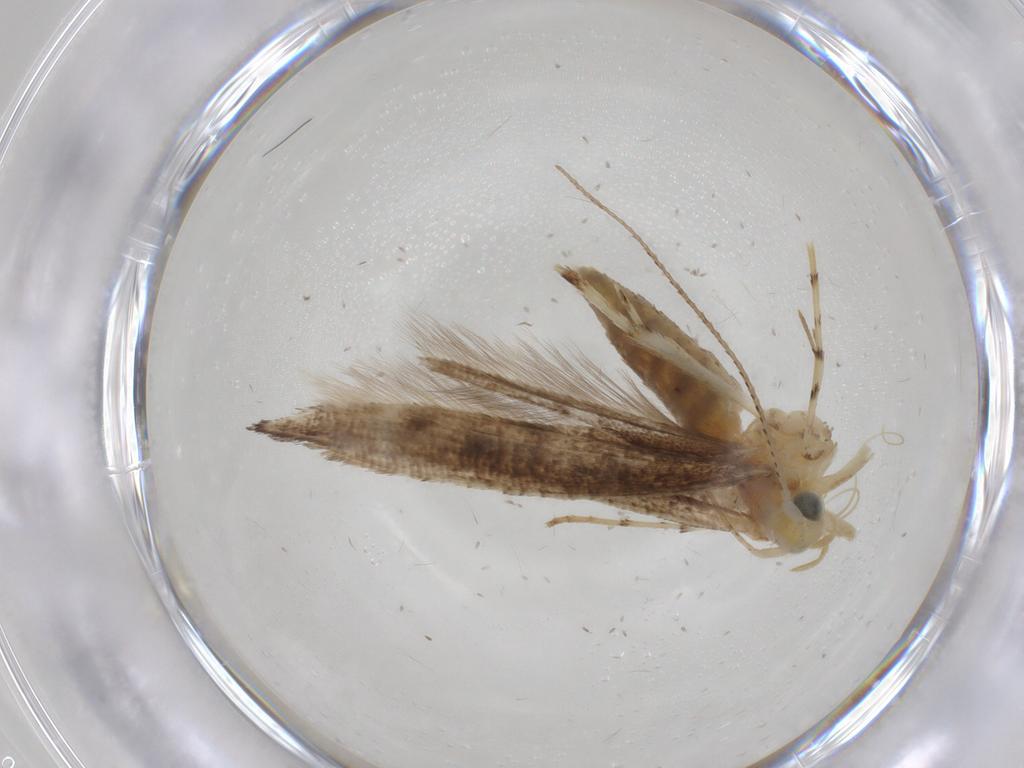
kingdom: Animalia
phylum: Arthropoda
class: Insecta
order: Lepidoptera
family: Argyresthiidae
